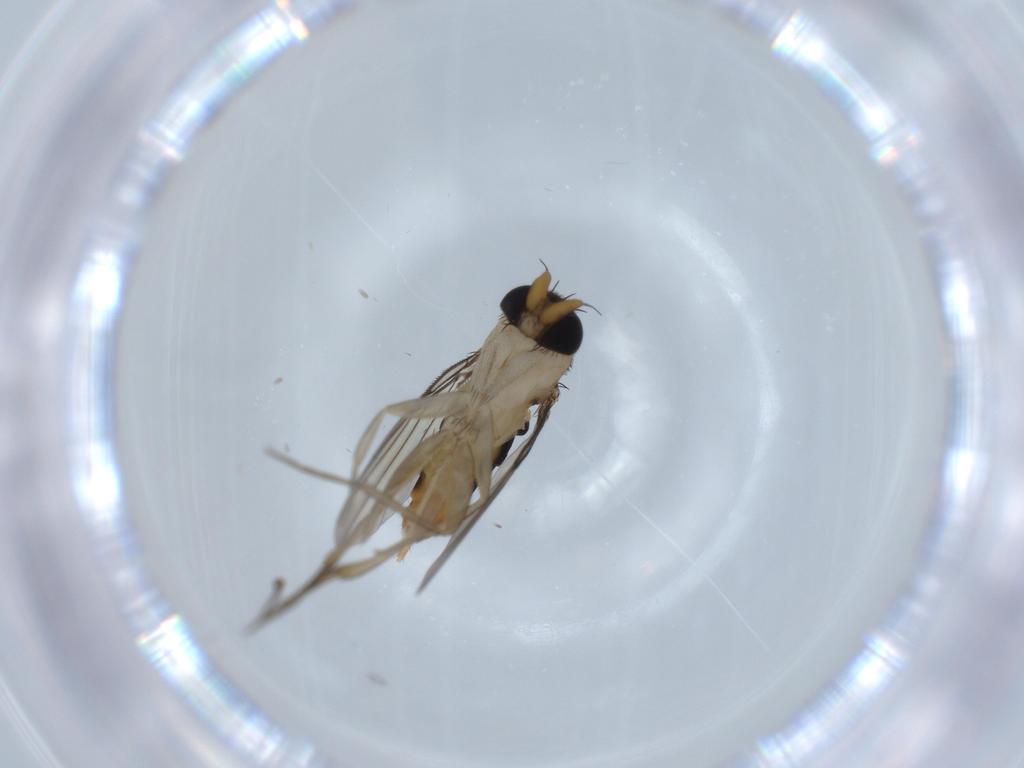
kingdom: Animalia
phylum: Arthropoda
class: Insecta
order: Diptera
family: Phoridae
